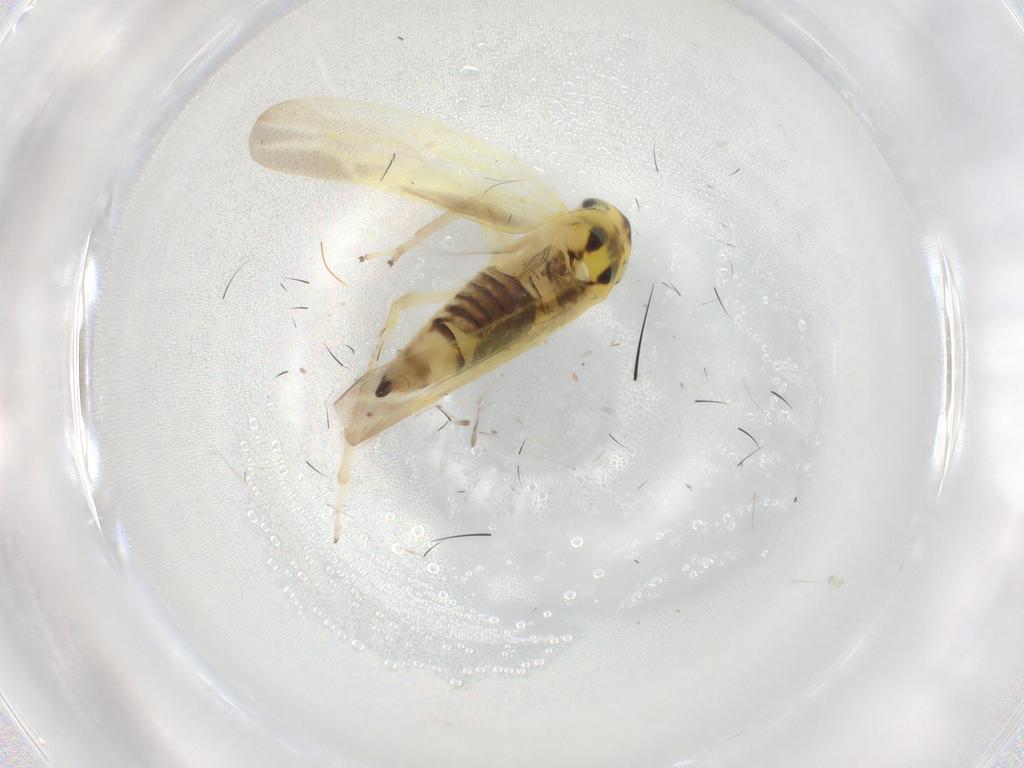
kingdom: Animalia
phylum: Arthropoda
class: Insecta
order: Hemiptera
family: Cicadellidae
